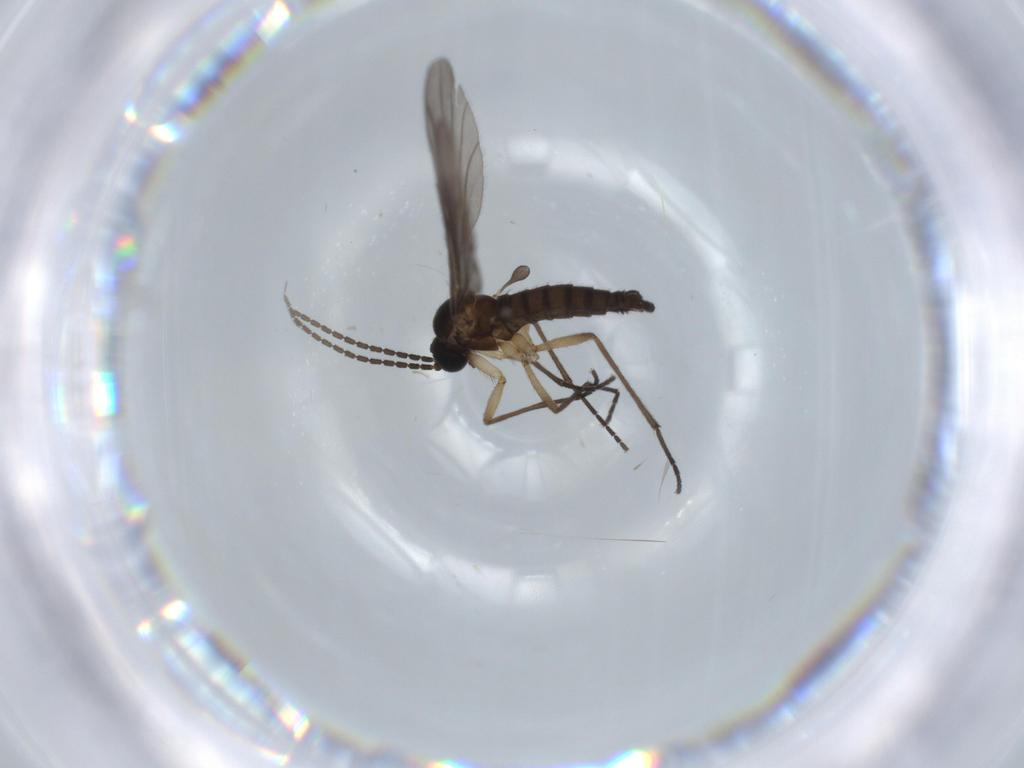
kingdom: Animalia
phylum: Arthropoda
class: Insecta
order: Diptera
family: Sciaridae
